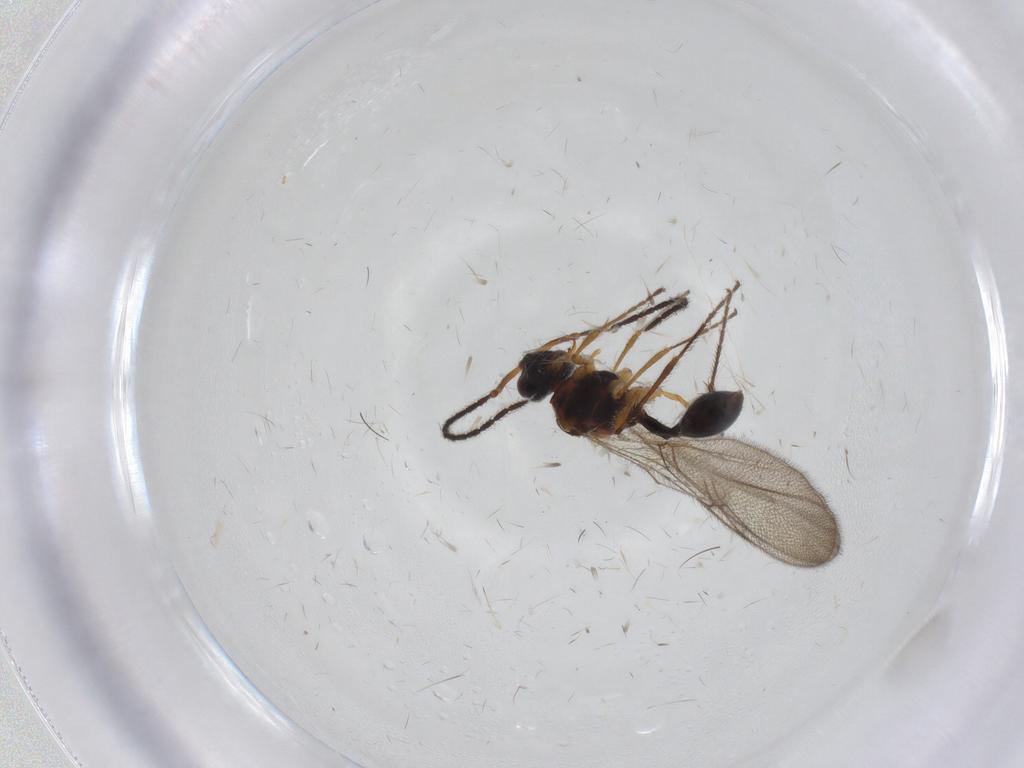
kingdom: Animalia
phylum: Arthropoda
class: Insecta
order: Hymenoptera
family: Diapriidae
